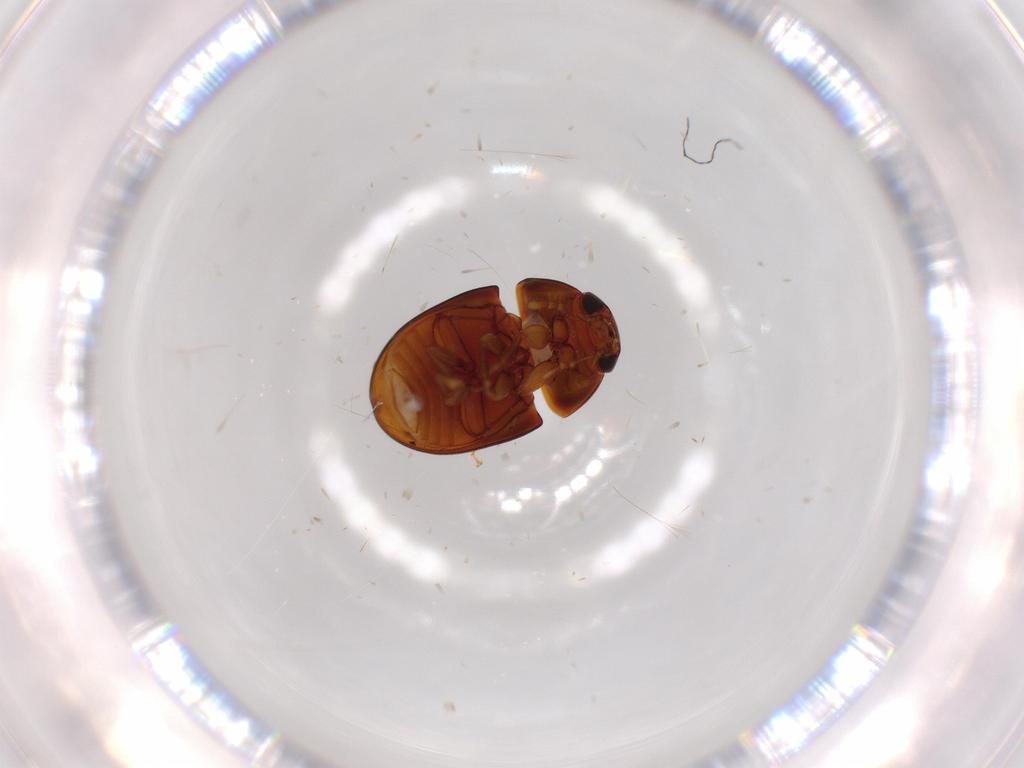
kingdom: Animalia
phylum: Arthropoda
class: Insecta
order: Coleoptera
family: Phalacridae
